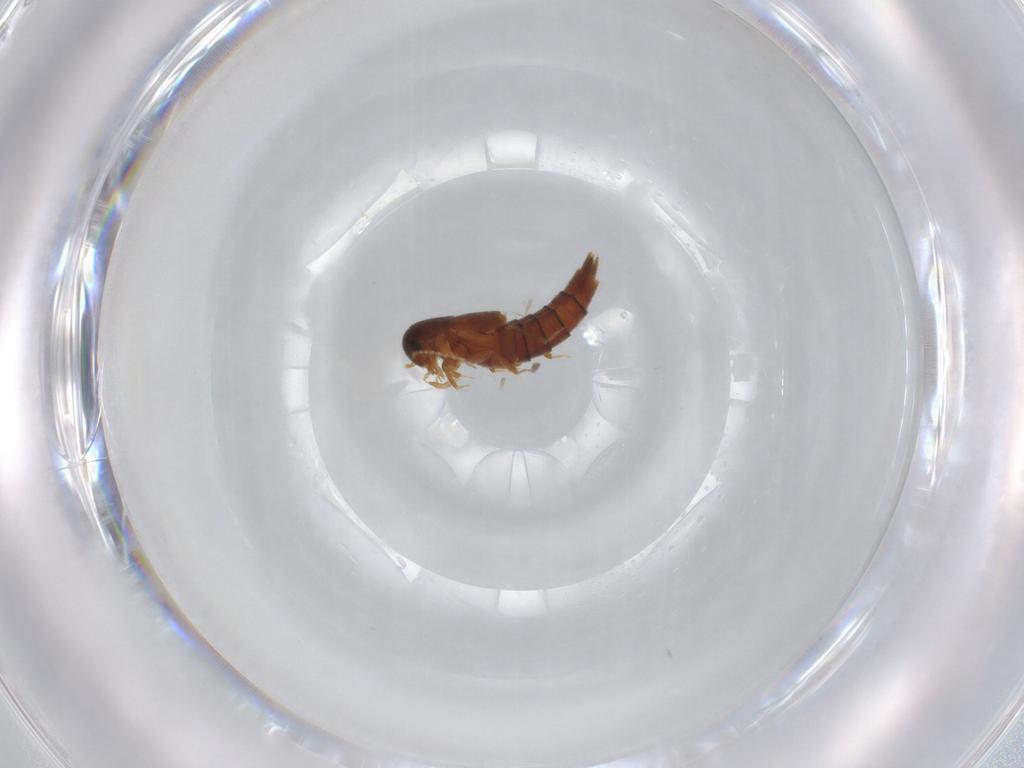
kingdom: Animalia
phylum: Arthropoda
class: Insecta
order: Coleoptera
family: Staphylinidae
